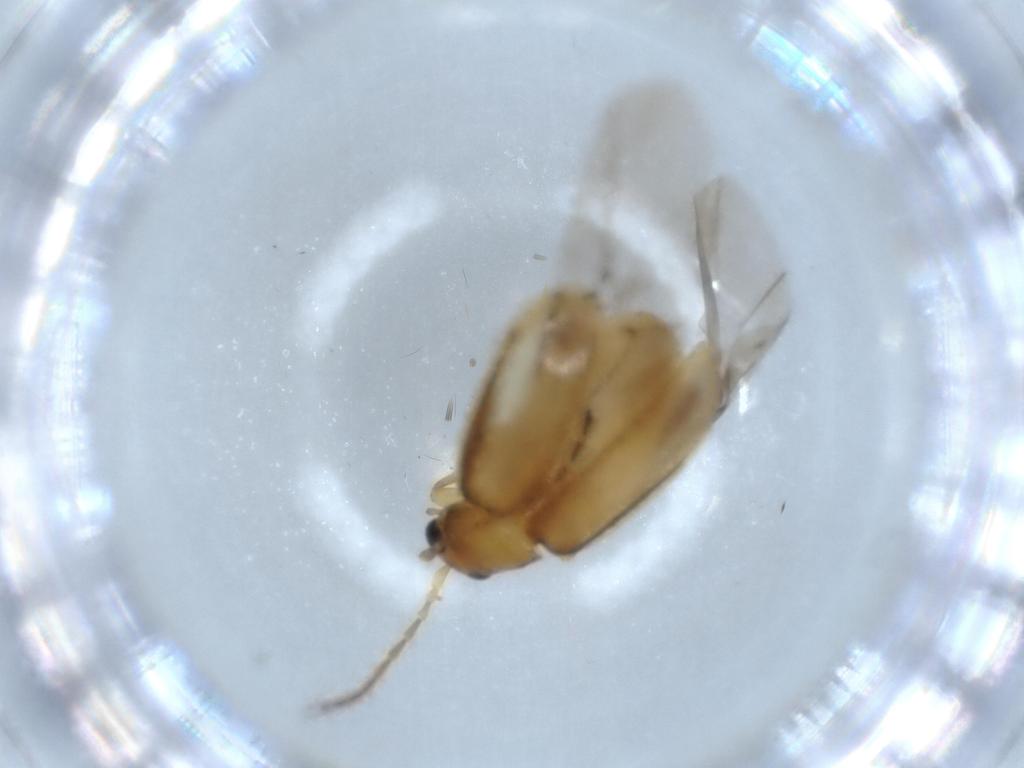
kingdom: Animalia
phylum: Arthropoda
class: Insecta
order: Coleoptera
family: Chrysomelidae
